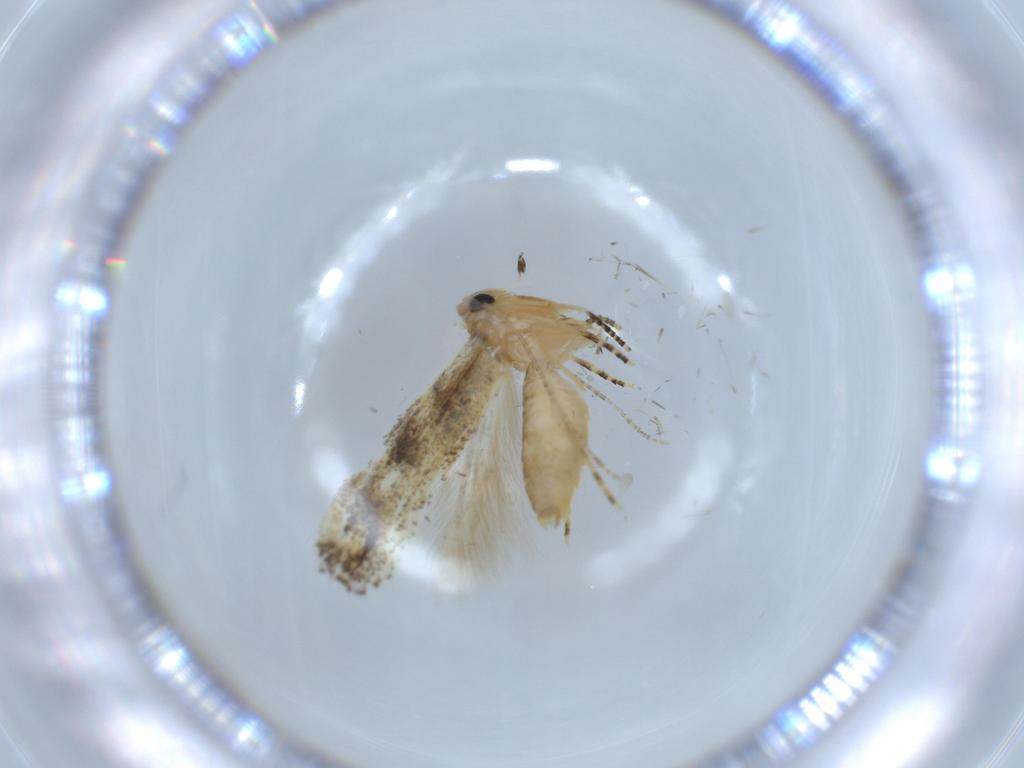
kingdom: Animalia
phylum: Arthropoda
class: Insecta
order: Lepidoptera
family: Bucculatricidae
